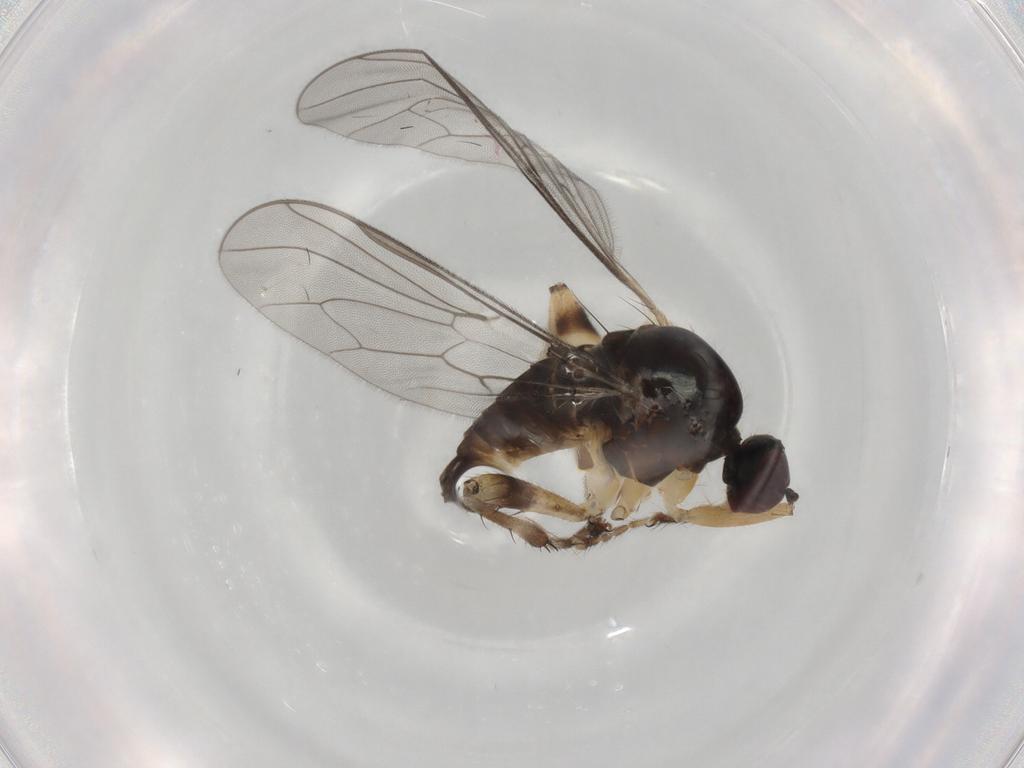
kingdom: Animalia
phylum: Arthropoda
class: Insecta
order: Diptera
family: Hybotidae
